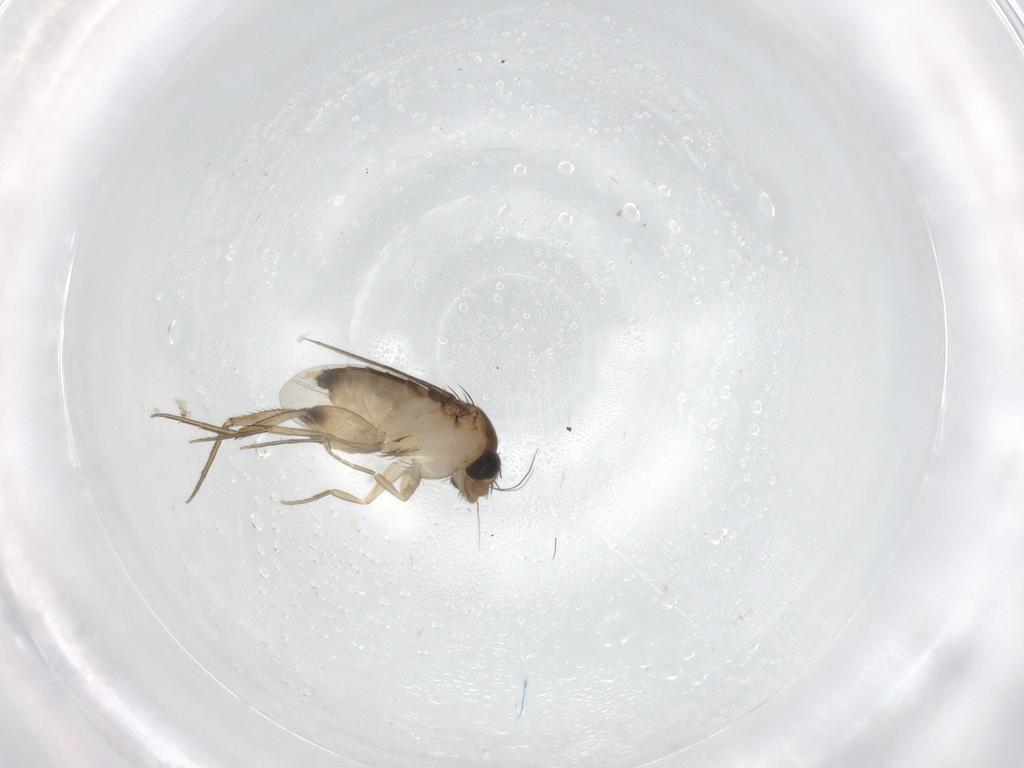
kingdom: Animalia
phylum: Arthropoda
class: Insecta
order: Diptera
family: Phoridae
